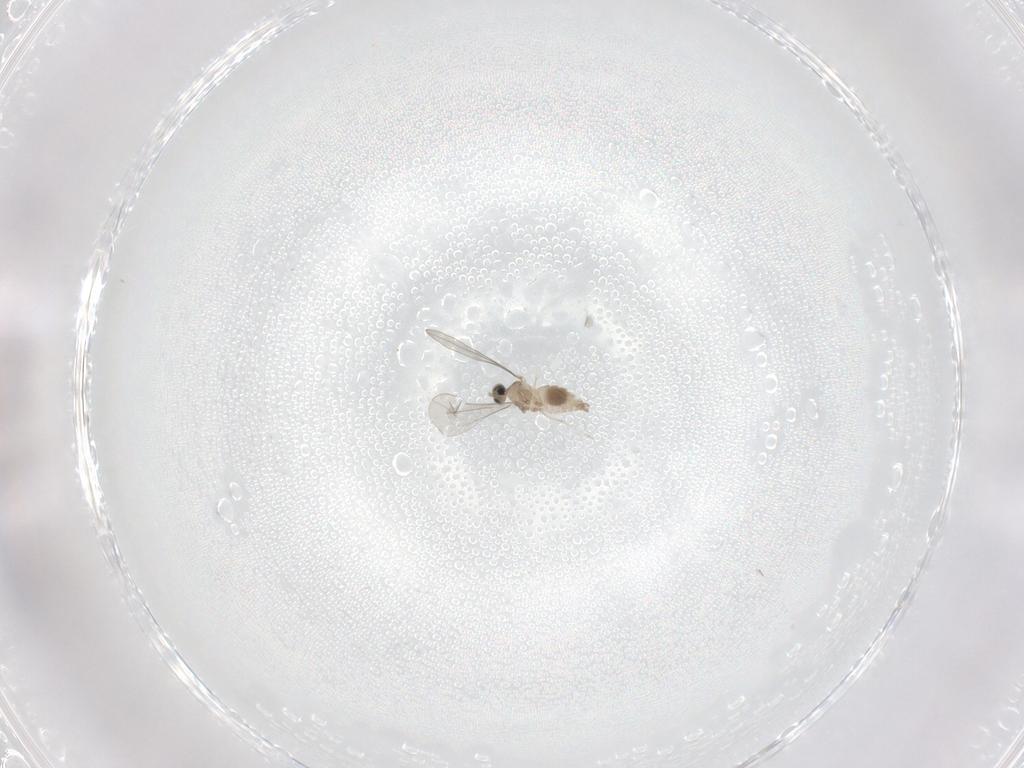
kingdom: Animalia
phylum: Arthropoda
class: Insecta
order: Diptera
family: Cecidomyiidae
